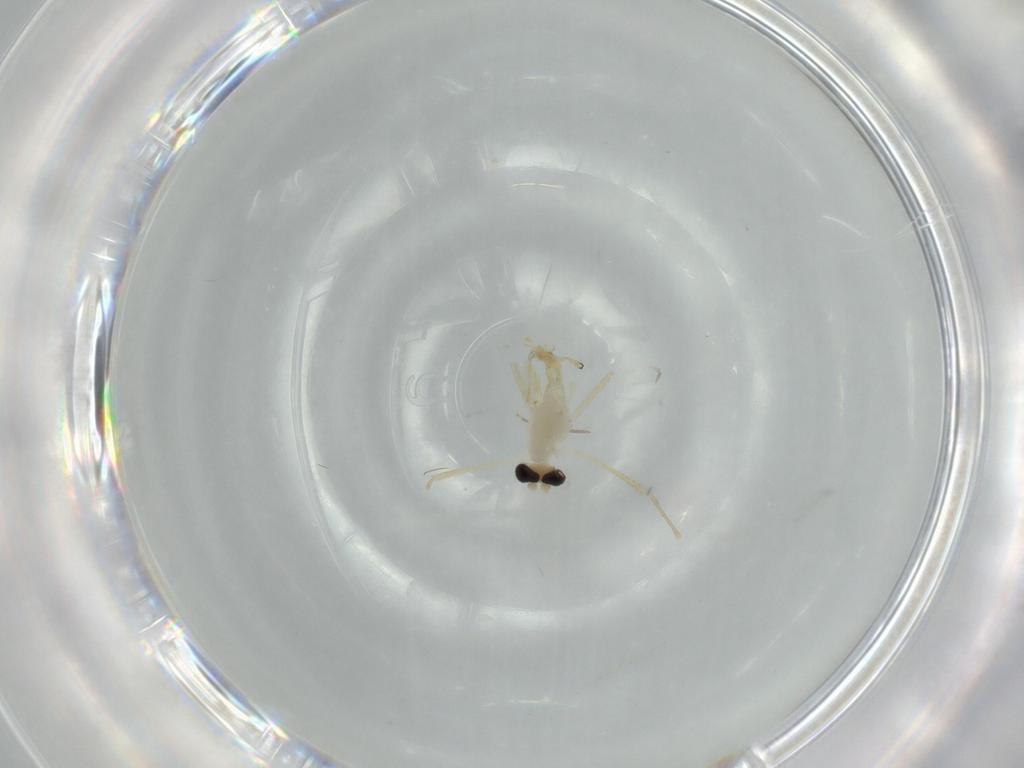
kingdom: Animalia
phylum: Arthropoda
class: Insecta
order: Diptera
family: Chironomidae
